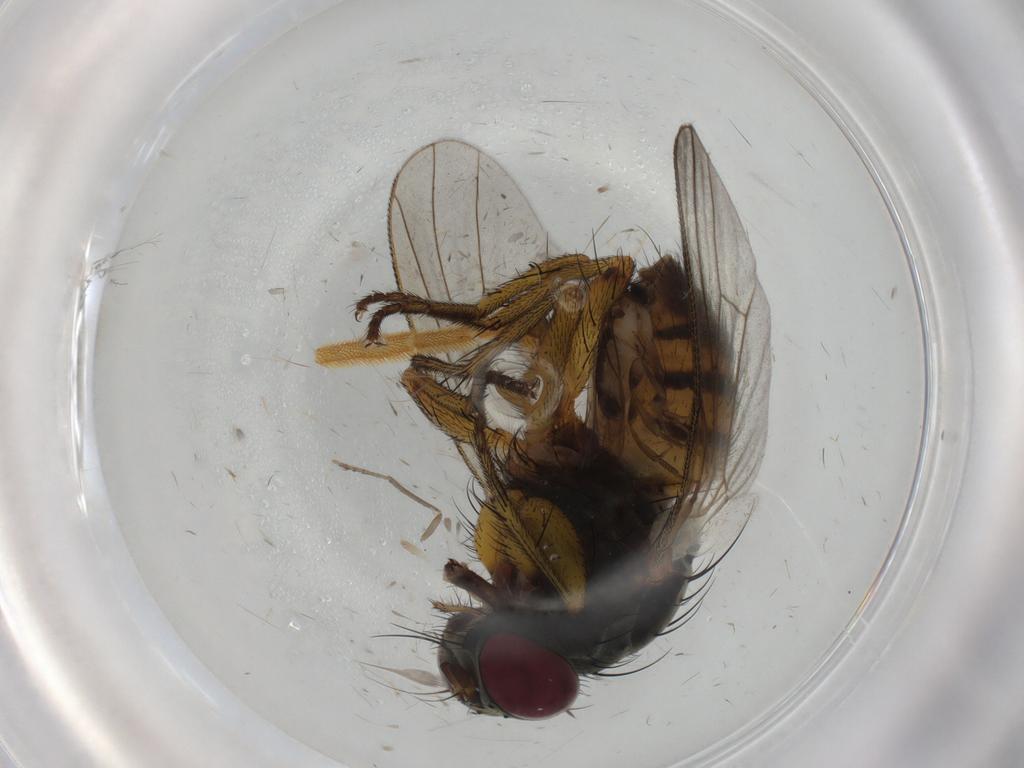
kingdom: Animalia
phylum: Arthropoda
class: Insecta
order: Diptera
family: Muscidae
